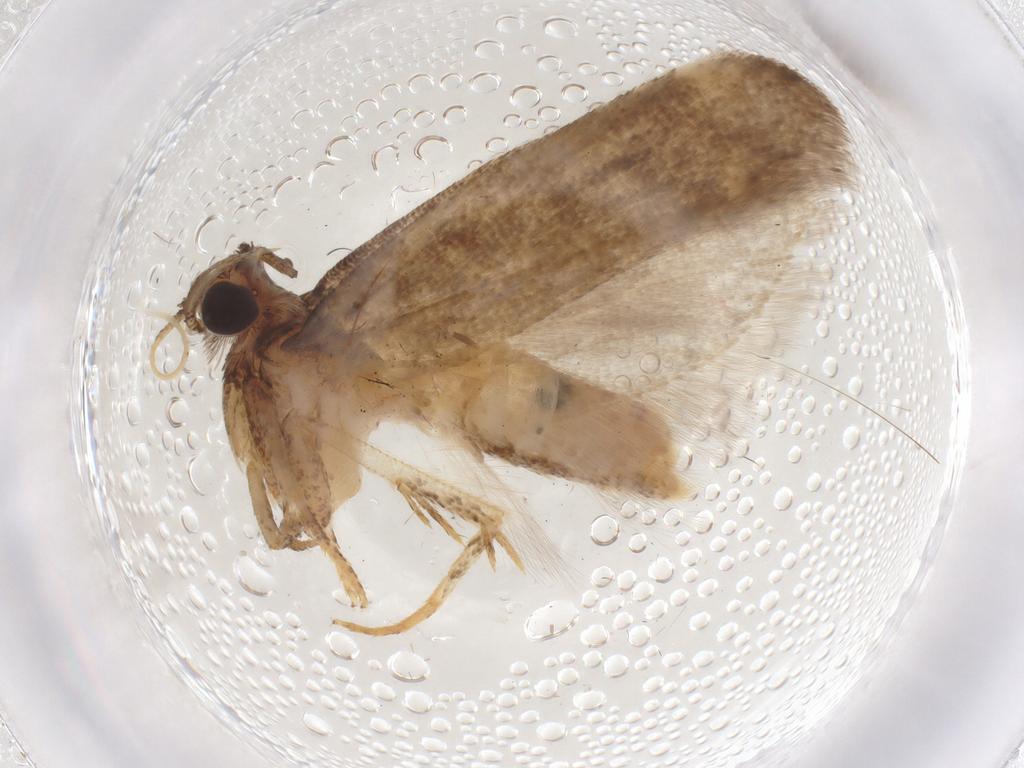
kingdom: Animalia
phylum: Arthropoda
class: Insecta
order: Lepidoptera
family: Gelechiidae
